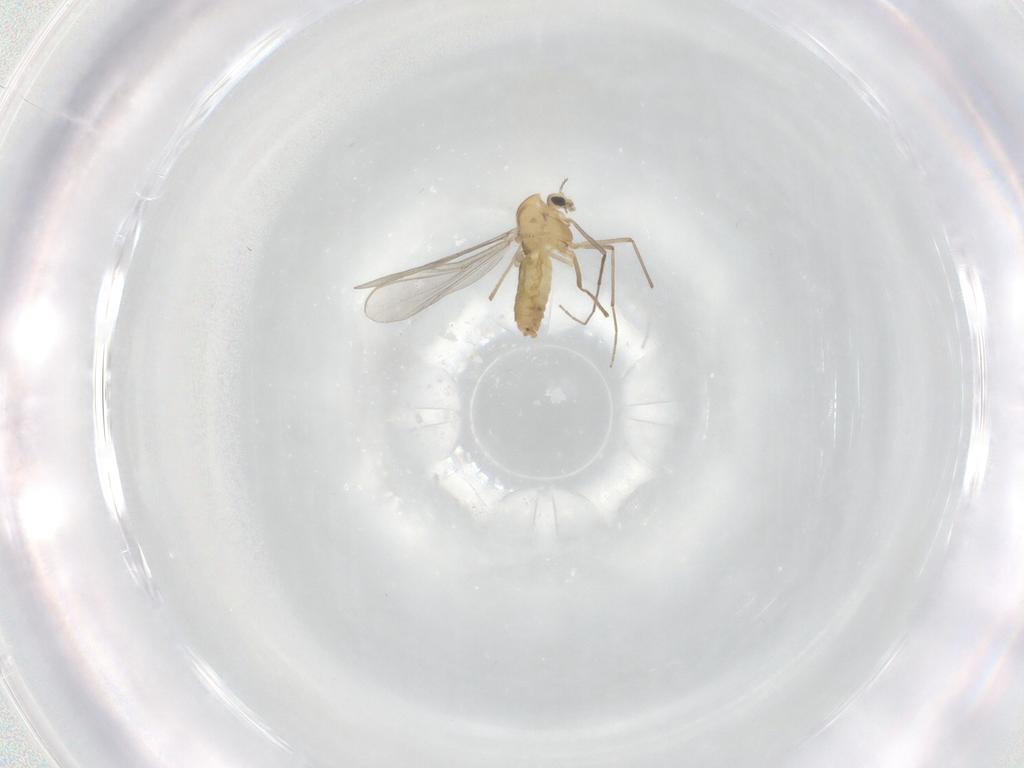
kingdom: Animalia
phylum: Arthropoda
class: Insecta
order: Diptera
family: Chironomidae
